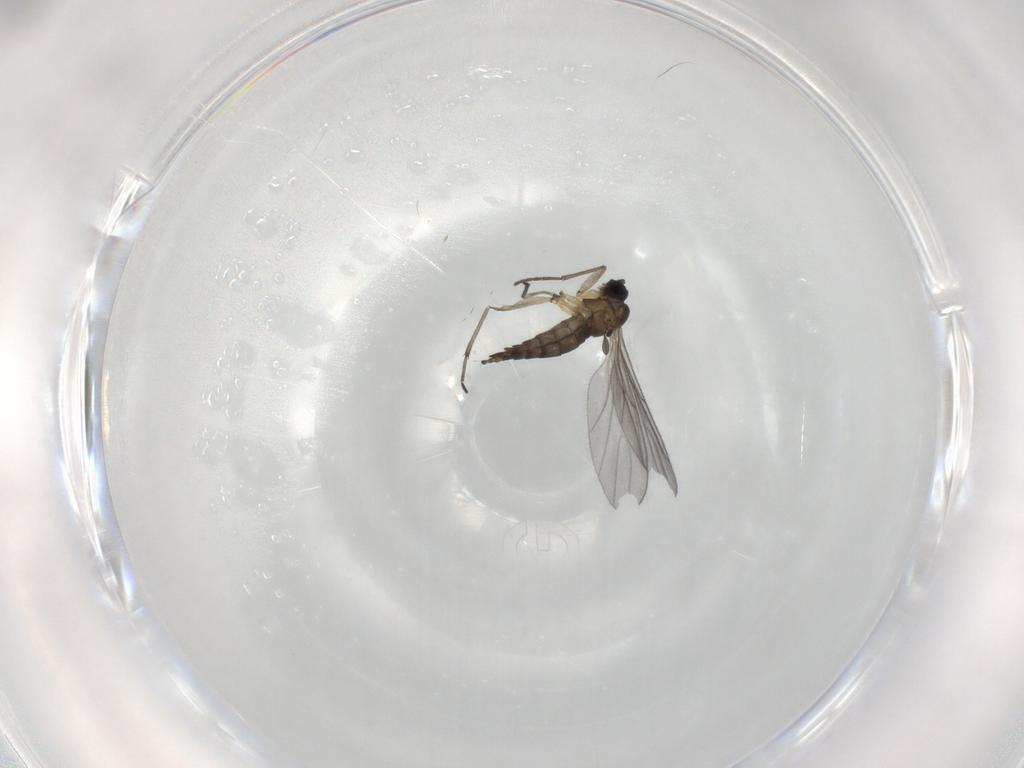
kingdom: Animalia
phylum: Arthropoda
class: Insecta
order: Diptera
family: Sciaridae
